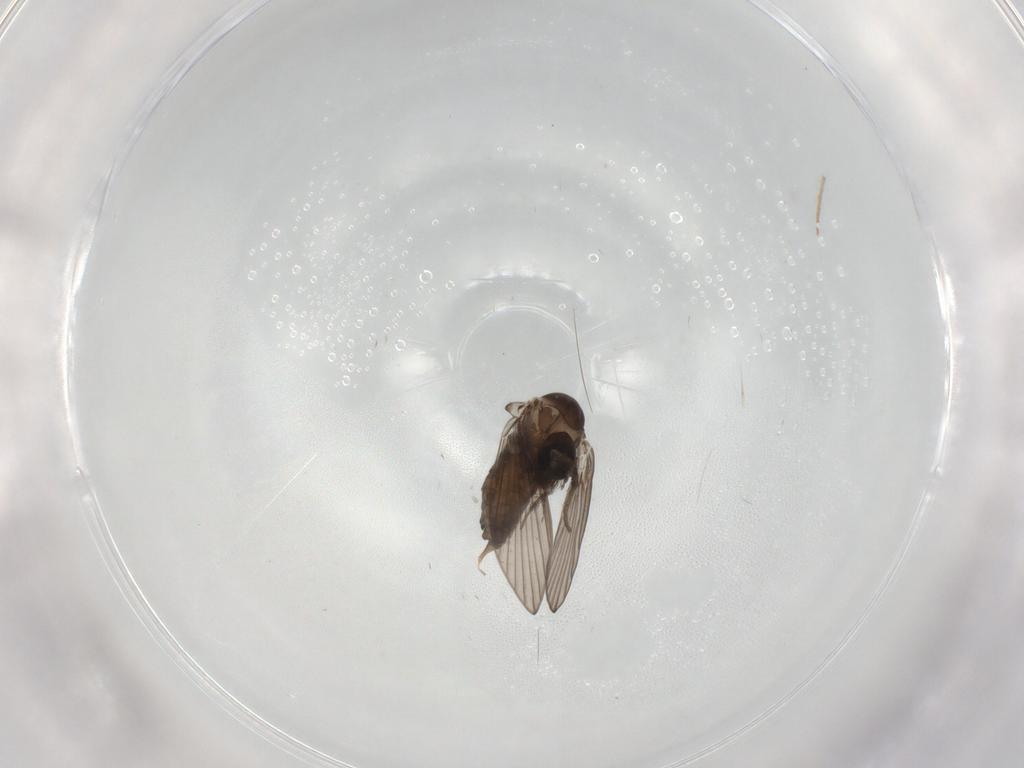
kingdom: Animalia
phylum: Arthropoda
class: Insecta
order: Diptera
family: Psychodidae
